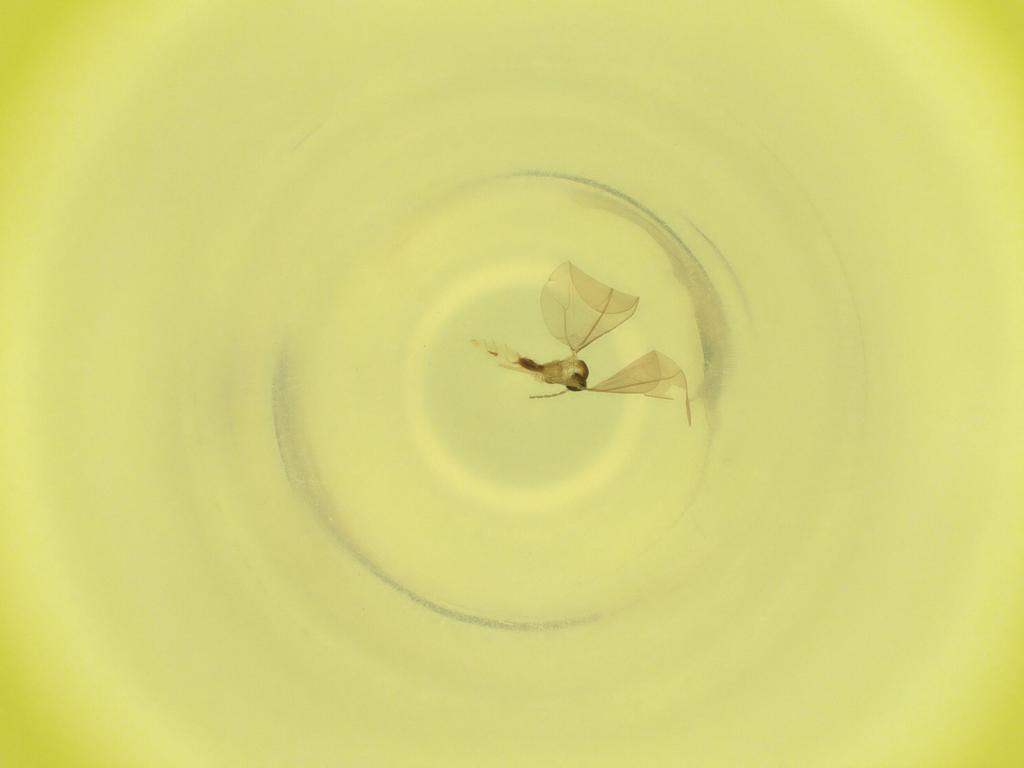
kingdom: Animalia
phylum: Arthropoda
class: Insecta
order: Diptera
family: Cecidomyiidae
